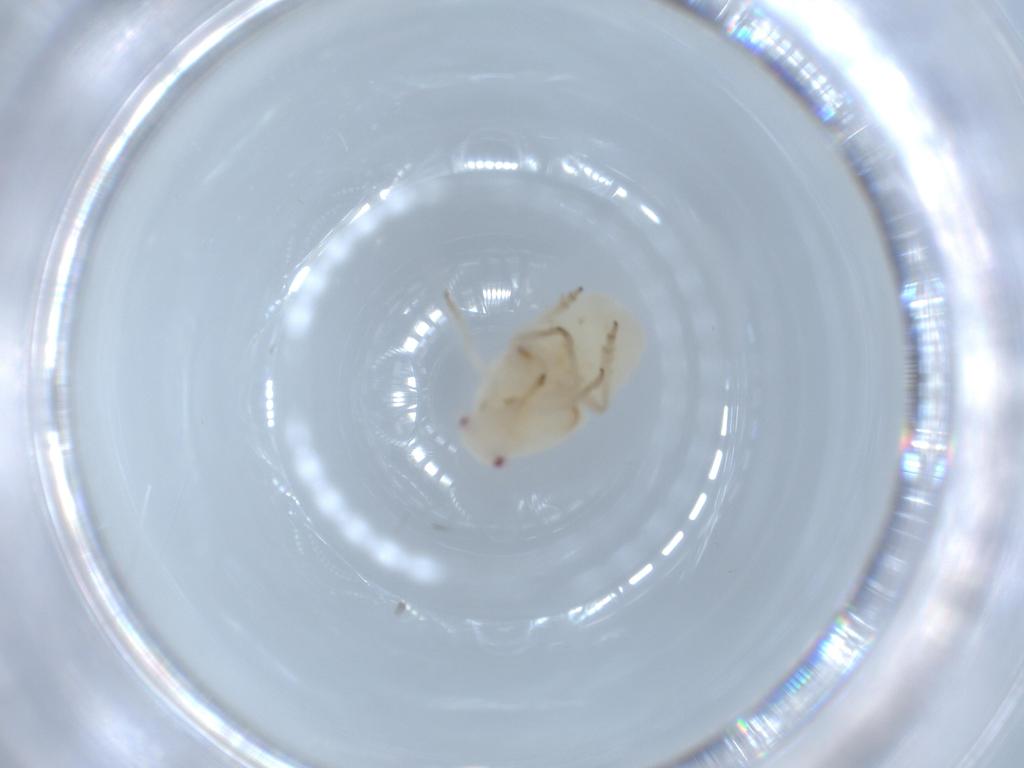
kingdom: Animalia
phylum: Arthropoda
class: Insecta
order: Hemiptera
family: Flatidae
